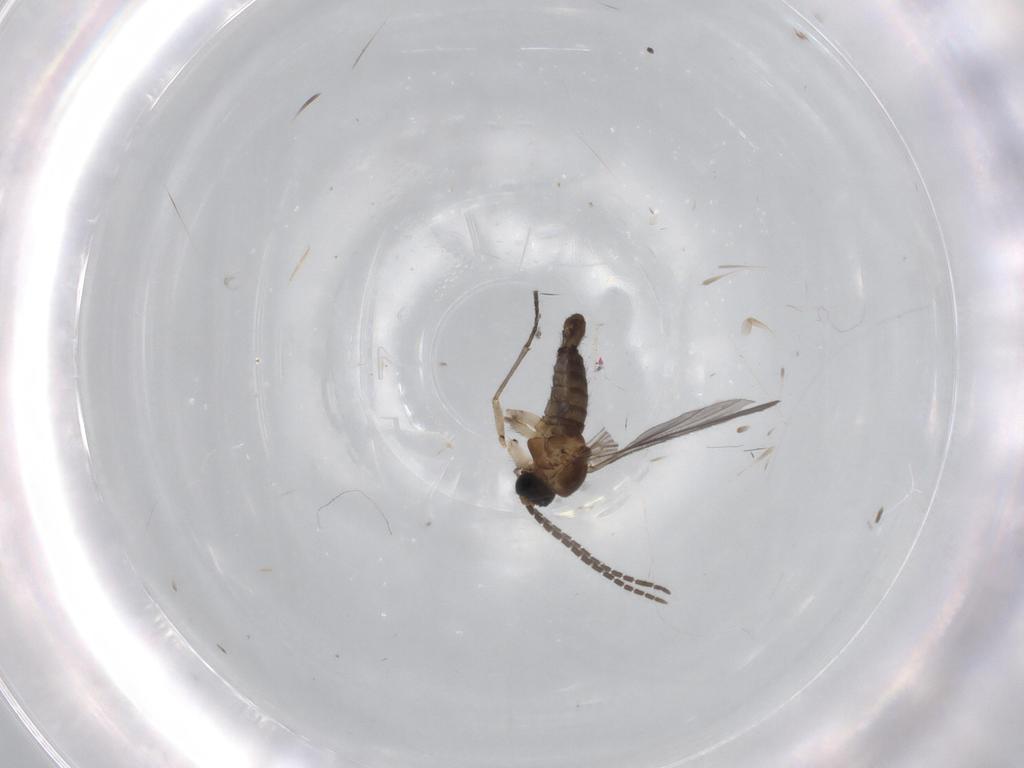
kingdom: Animalia
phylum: Arthropoda
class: Insecta
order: Diptera
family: Sciaridae
